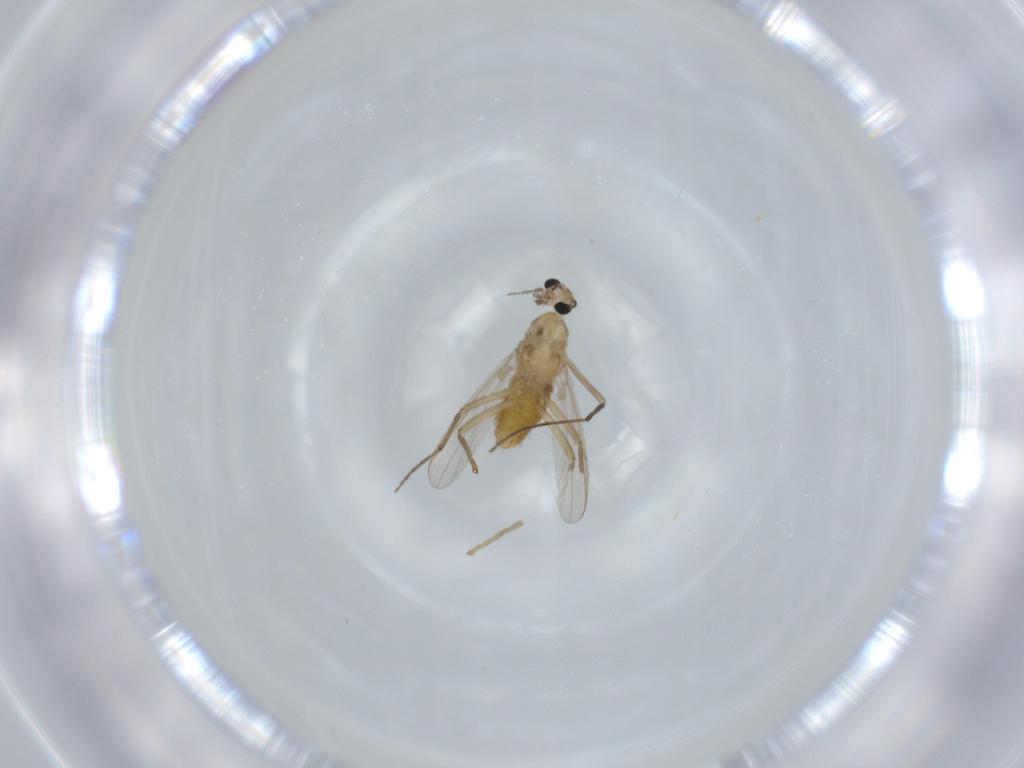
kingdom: Animalia
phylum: Arthropoda
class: Insecta
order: Diptera
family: Chironomidae
